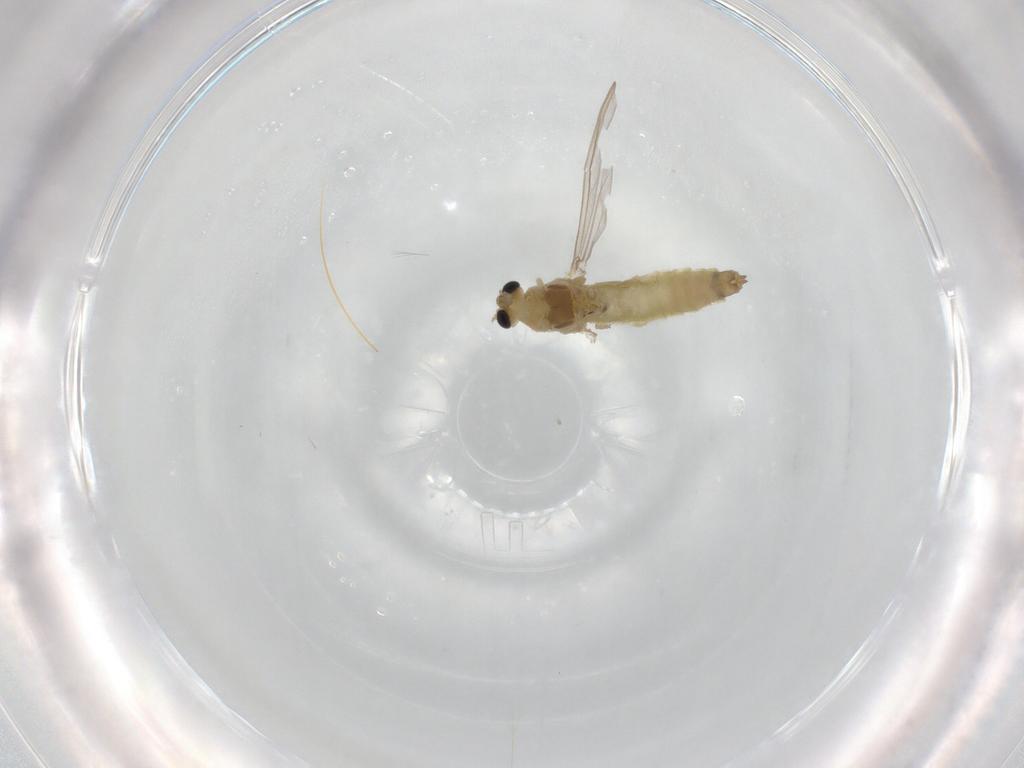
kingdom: Animalia
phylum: Arthropoda
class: Insecta
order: Diptera
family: Chironomidae
